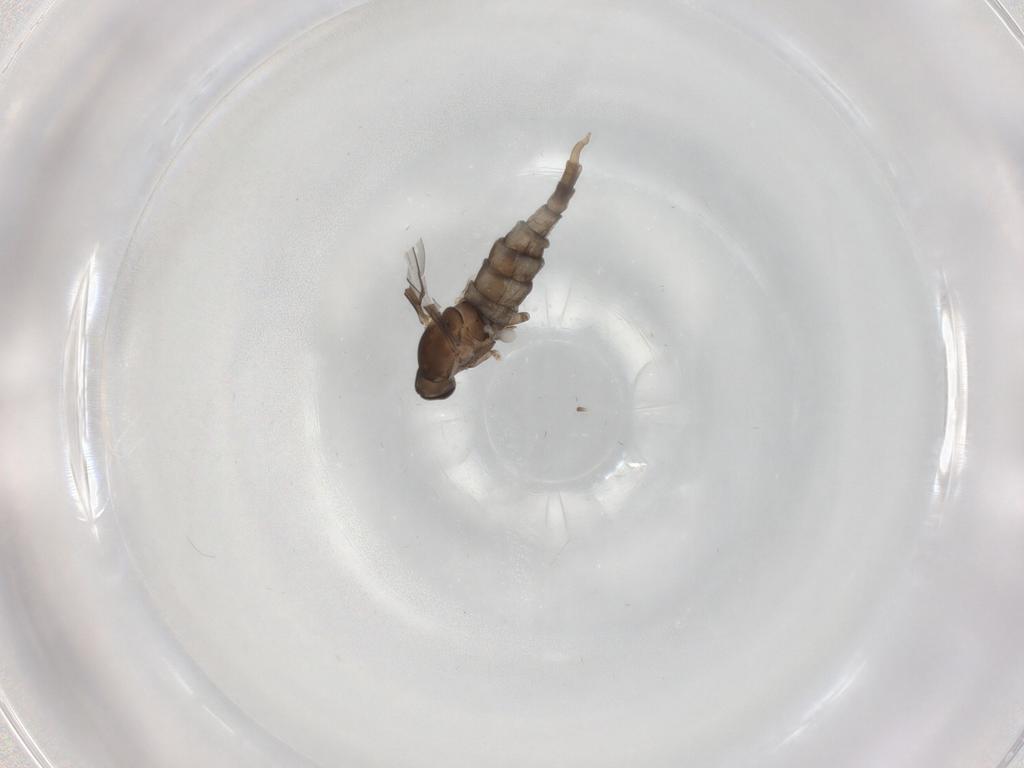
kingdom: Animalia
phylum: Arthropoda
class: Insecta
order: Diptera
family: Cecidomyiidae
